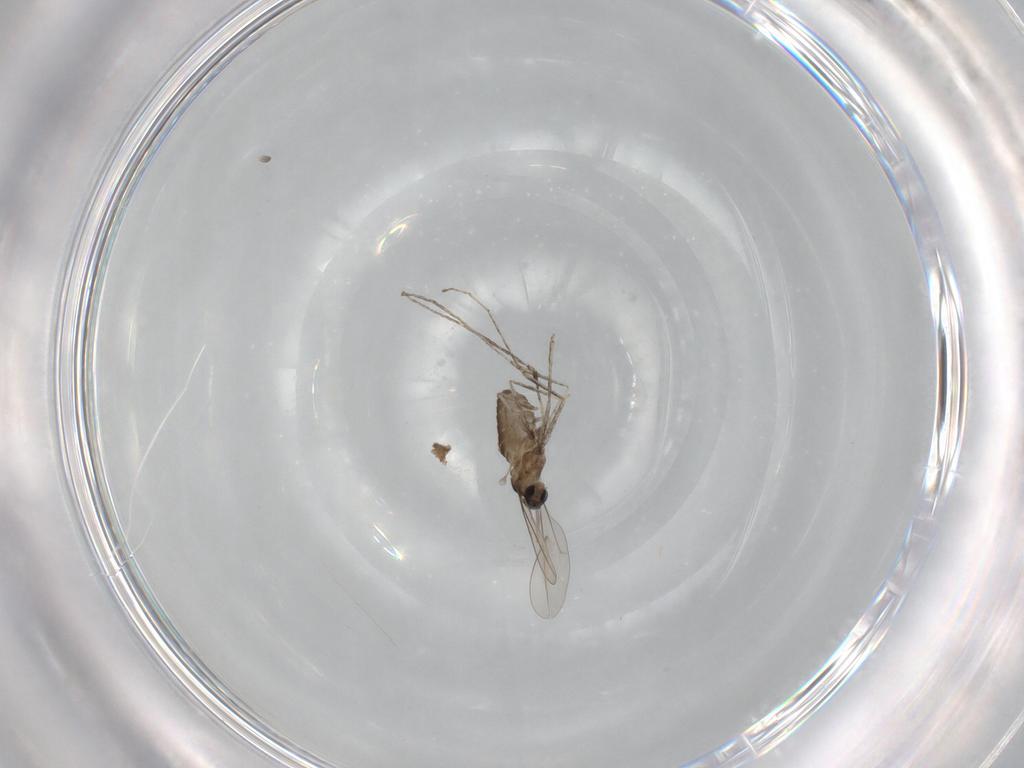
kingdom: Animalia
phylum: Arthropoda
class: Insecta
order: Diptera
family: Cecidomyiidae
